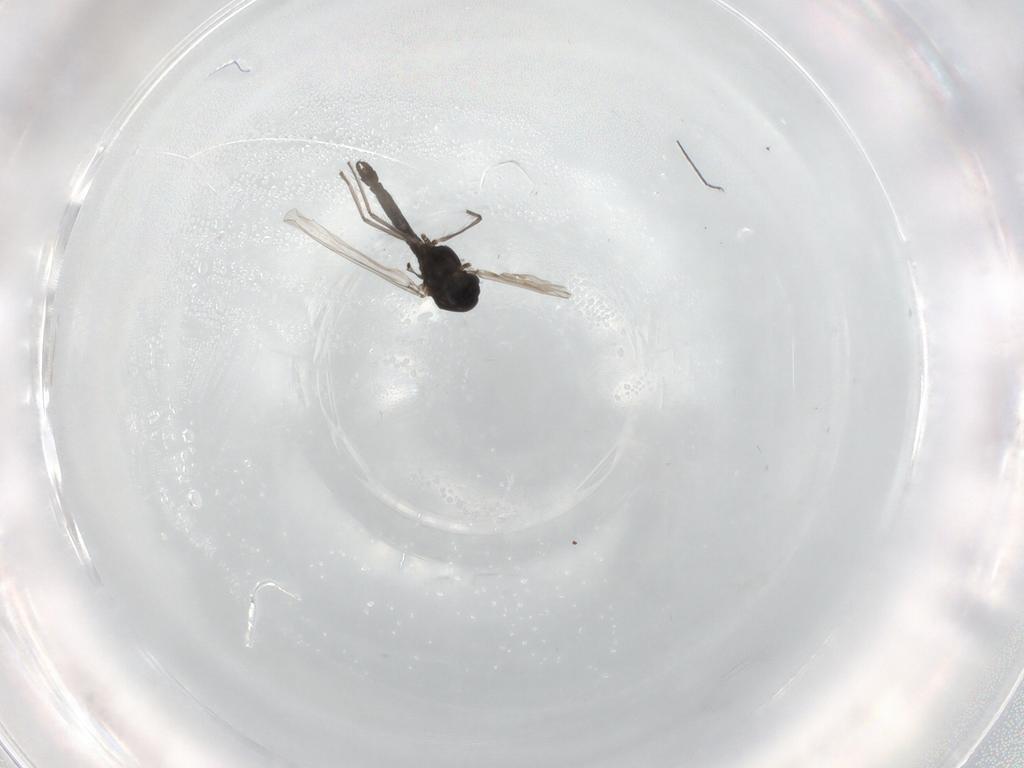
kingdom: Animalia
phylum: Arthropoda
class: Insecta
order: Diptera
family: Chironomidae
